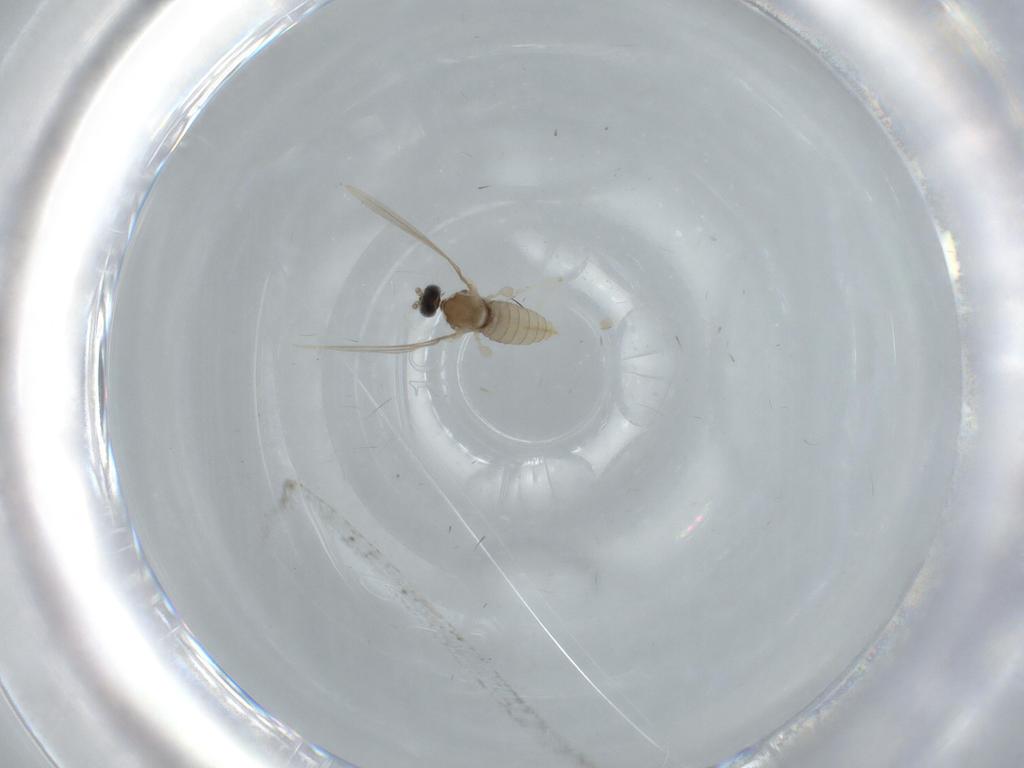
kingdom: Animalia
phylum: Arthropoda
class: Insecta
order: Diptera
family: Cecidomyiidae
